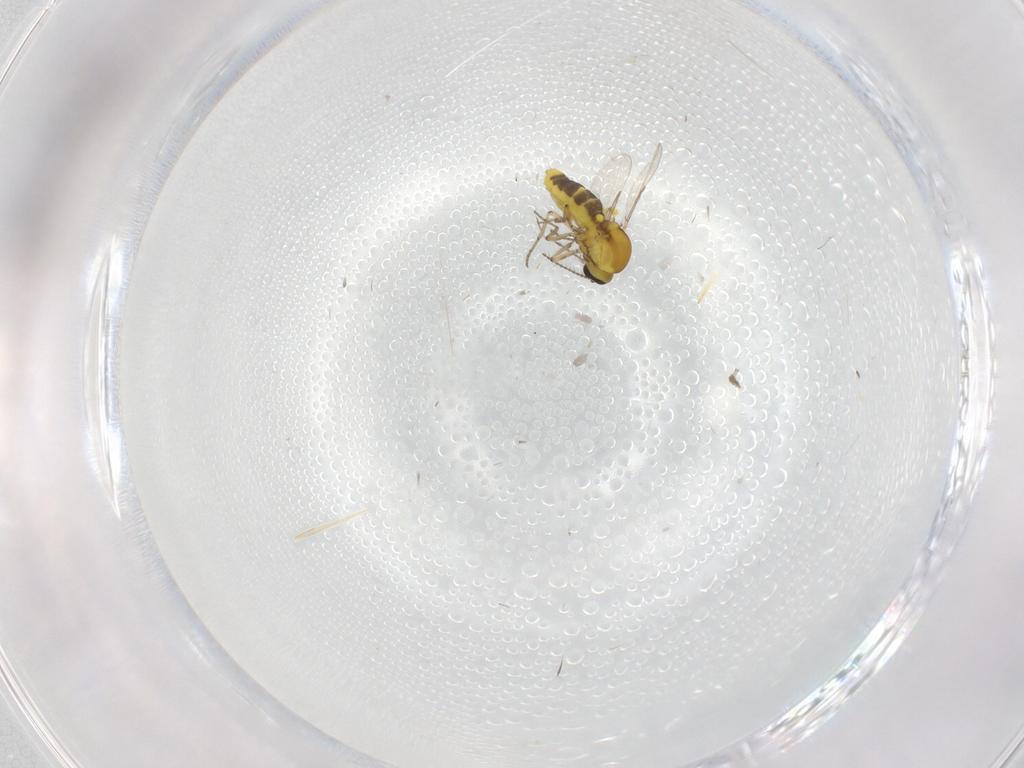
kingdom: Animalia
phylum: Arthropoda
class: Insecta
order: Diptera
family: Ceratopogonidae
